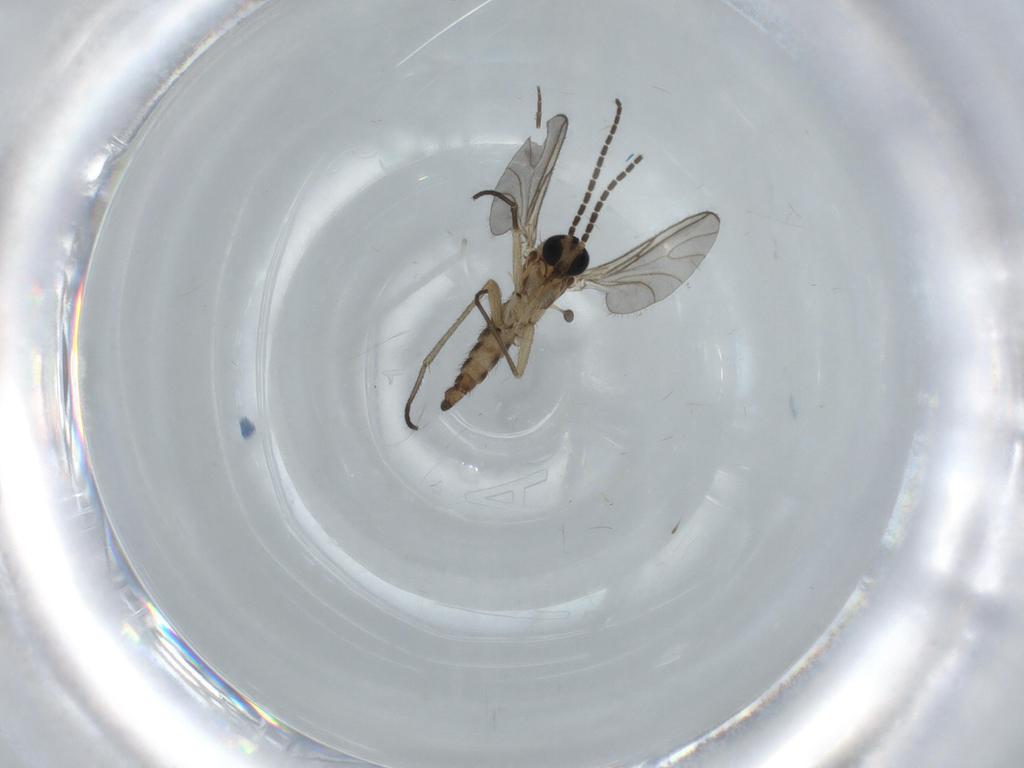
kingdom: Animalia
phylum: Arthropoda
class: Insecta
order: Diptera
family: Sciaridae
